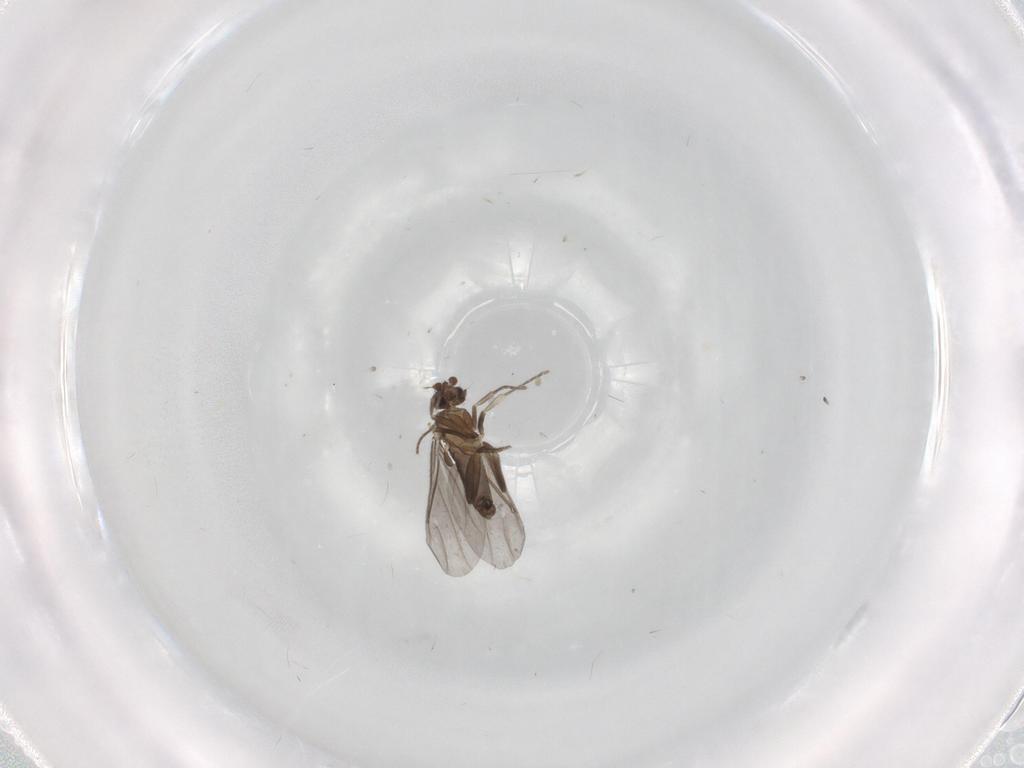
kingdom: Animalia
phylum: Arthropoda
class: Insecta
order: Diptera
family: Phoridae
